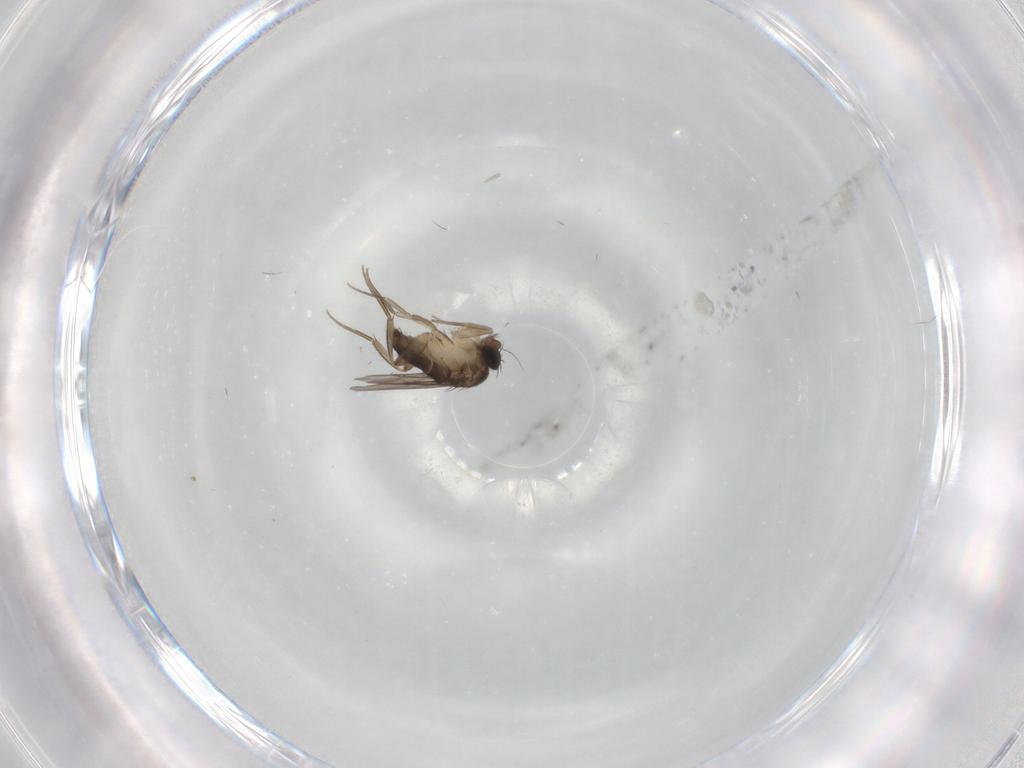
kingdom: Animalia
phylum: Arthropoda
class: Insecta
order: Diptera
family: Phoridae
